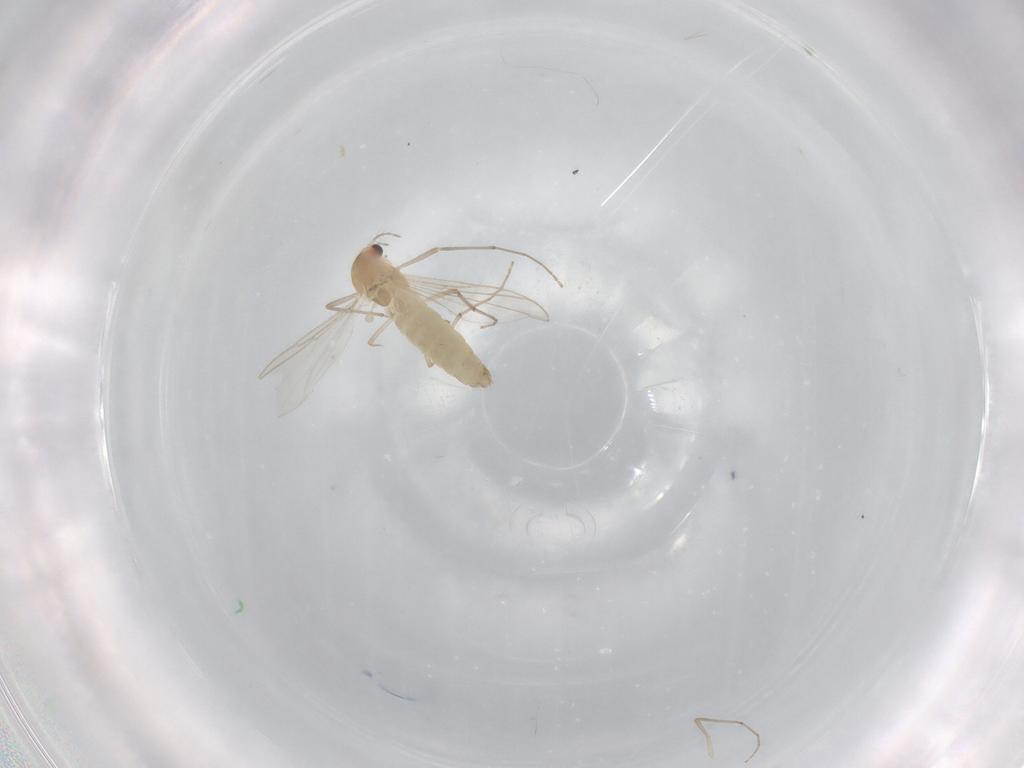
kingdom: Animalia
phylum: Arthropoda
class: Insecta
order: Diptera
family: Chironomidae
